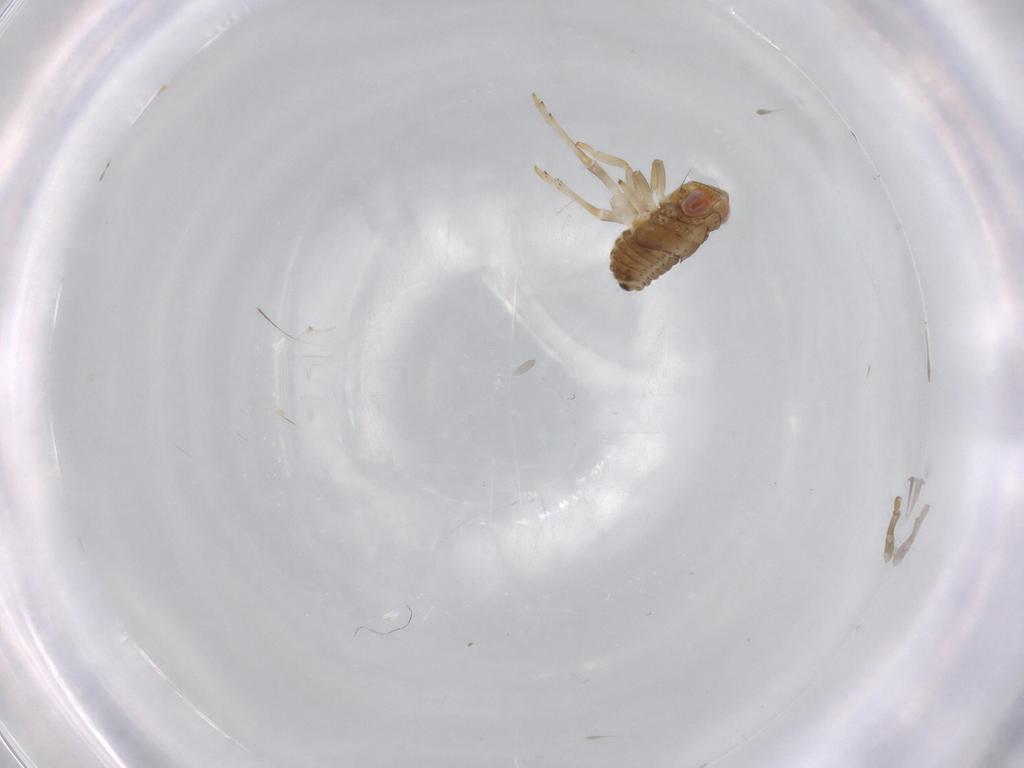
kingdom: Animalia
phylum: Arthropoda
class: Insecta
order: Hemiptera
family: Issidae
